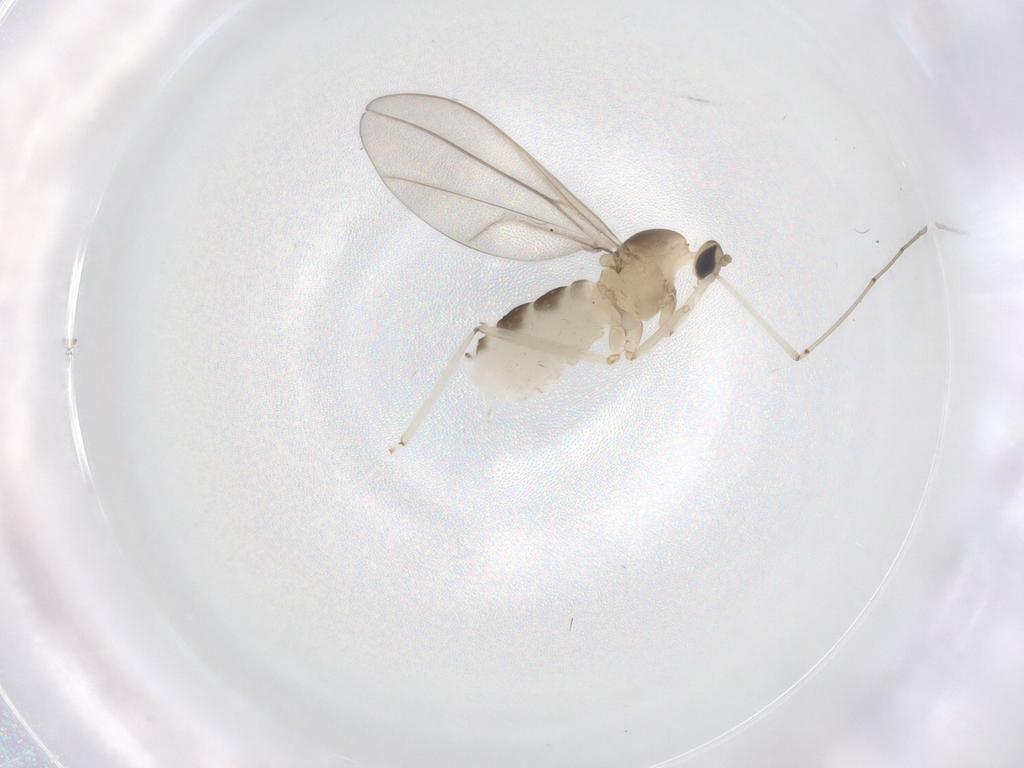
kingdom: Animalia
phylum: Arthropoda
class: Insecta
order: Diptera
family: Cecidomyiidae
